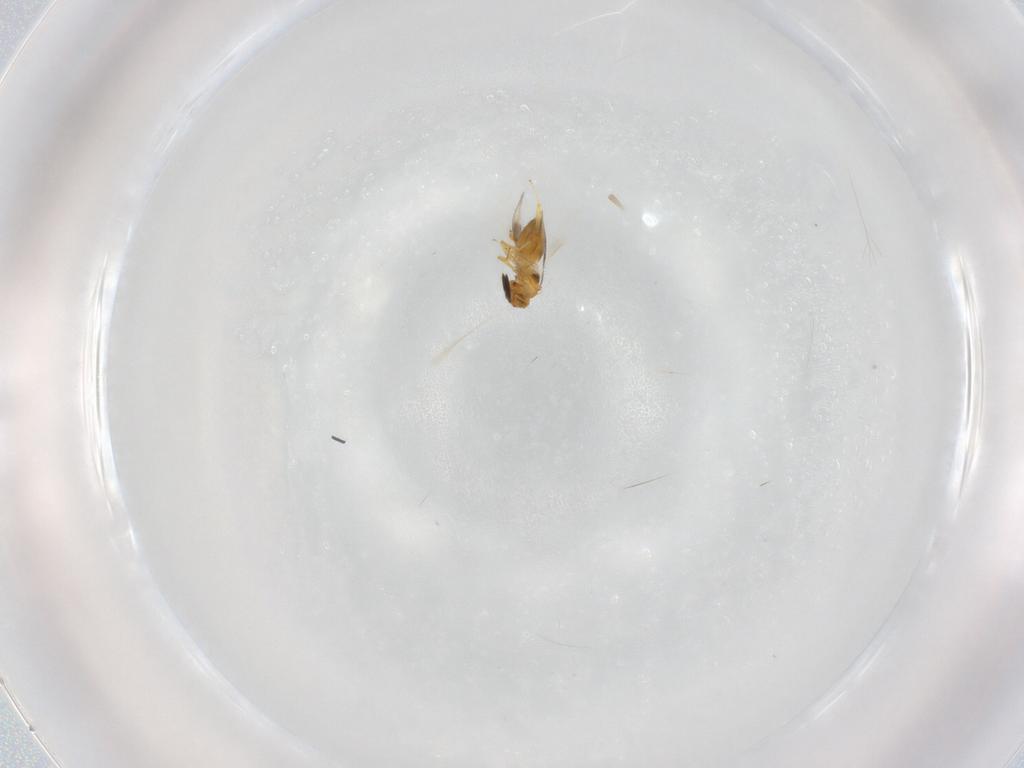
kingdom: Animalia
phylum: Arthropoda
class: Insecta
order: Hymenoptera
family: Encyrtidae
